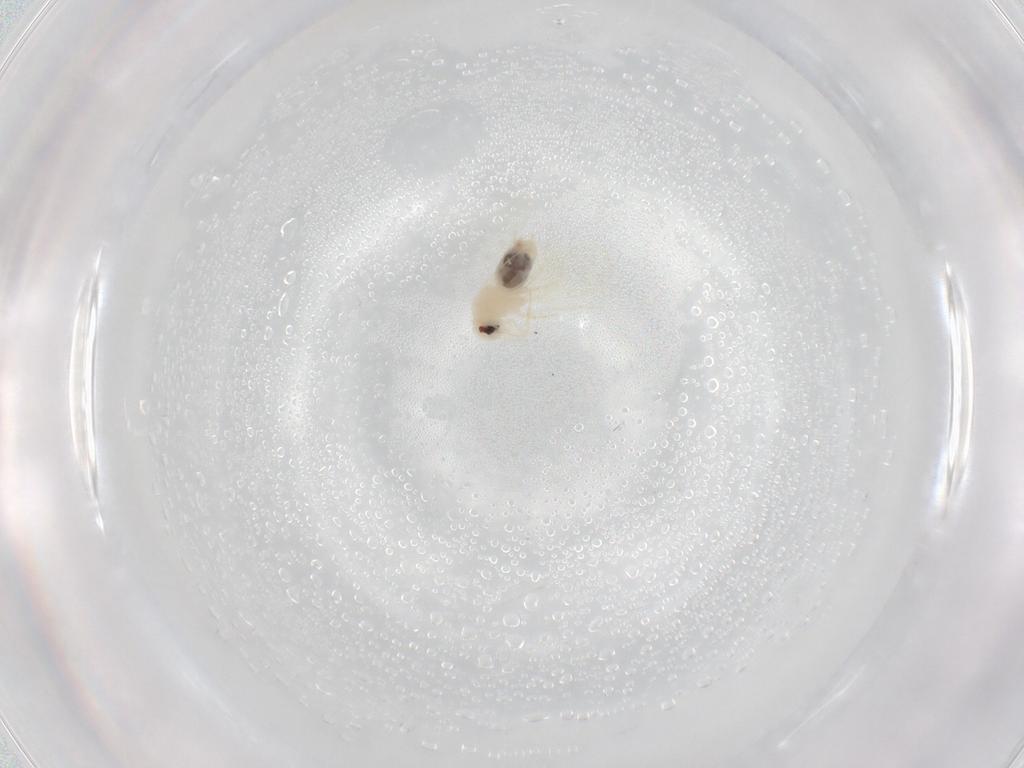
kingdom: Animalia
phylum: Arthropoda
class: Insecta
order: Hemiptera
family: Aleyrodidae
